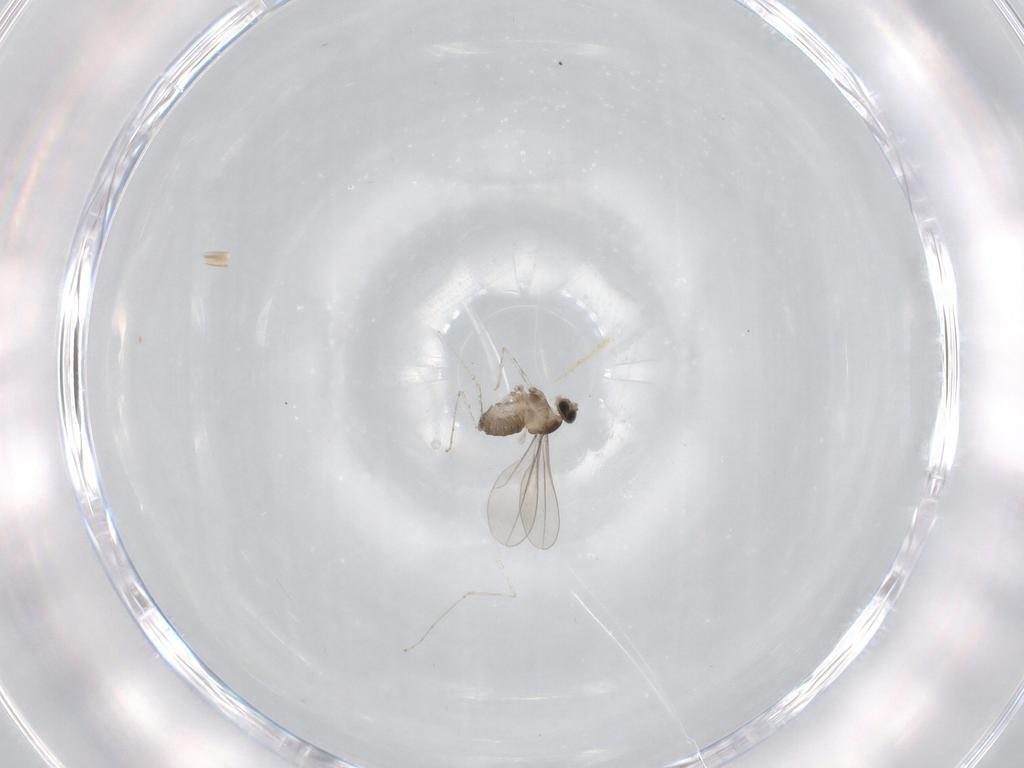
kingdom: Animalia
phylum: Arthropoda
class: Insecta
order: Diptera
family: Cecidomyiidae
